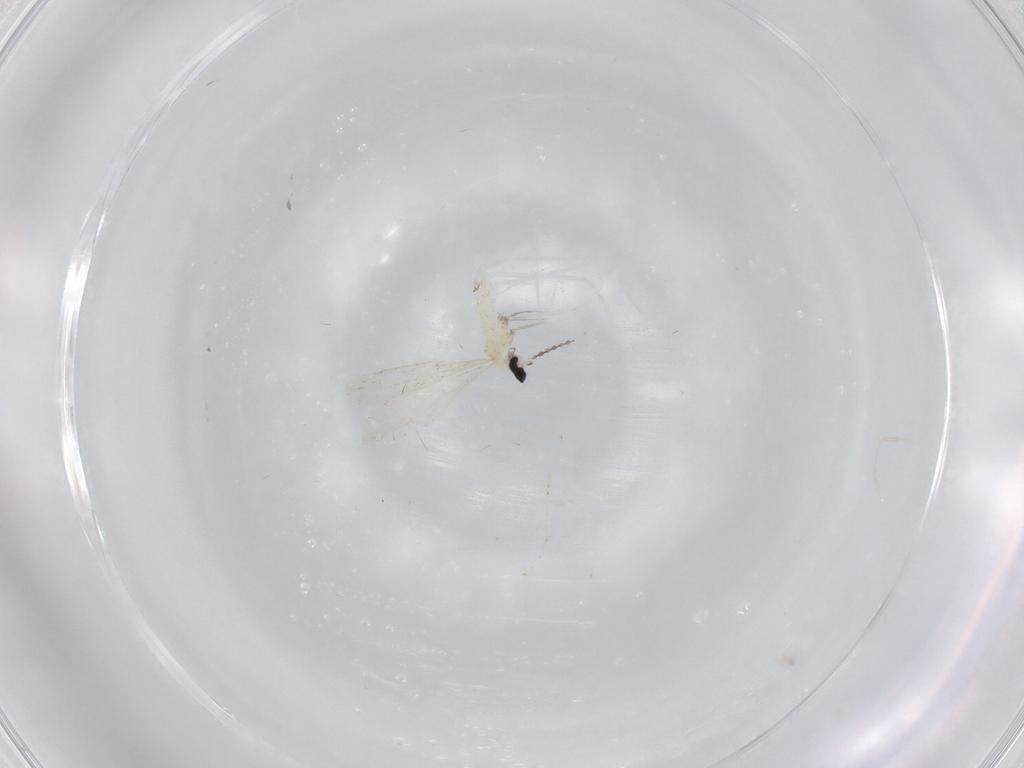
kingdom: Animalia
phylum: Arthropoda
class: Insecta
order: Diptera
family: Cecidomyiidae
